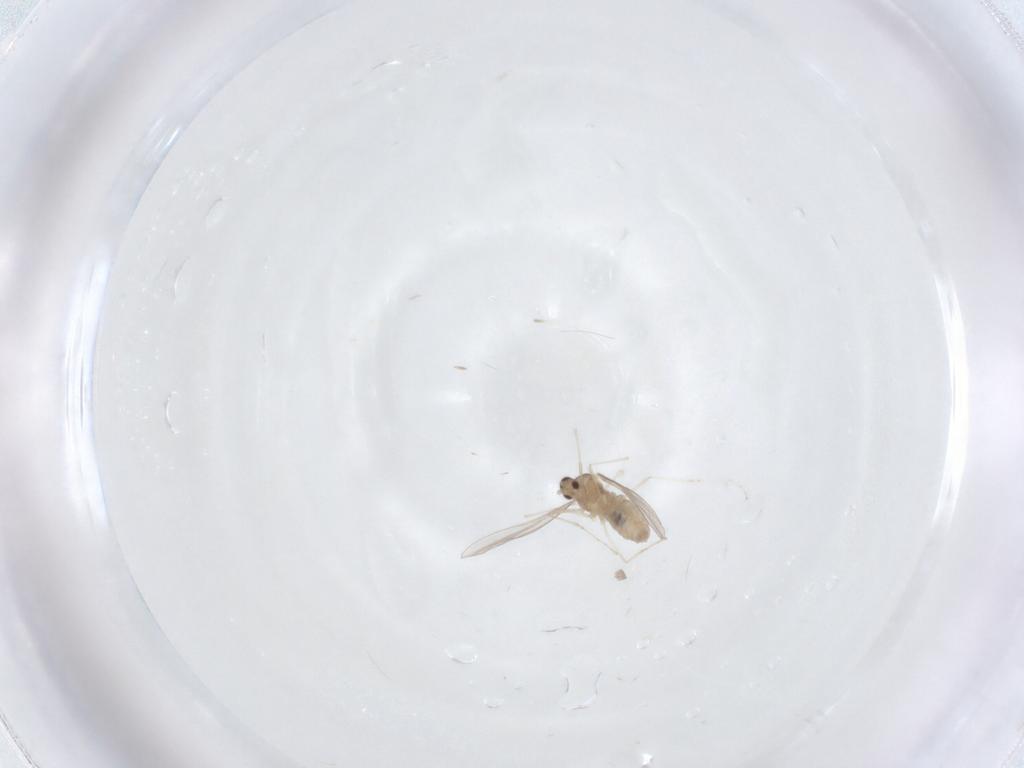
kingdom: Animalia
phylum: Arthropoda
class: Insecta
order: Diptera
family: Cecidomyiidae
